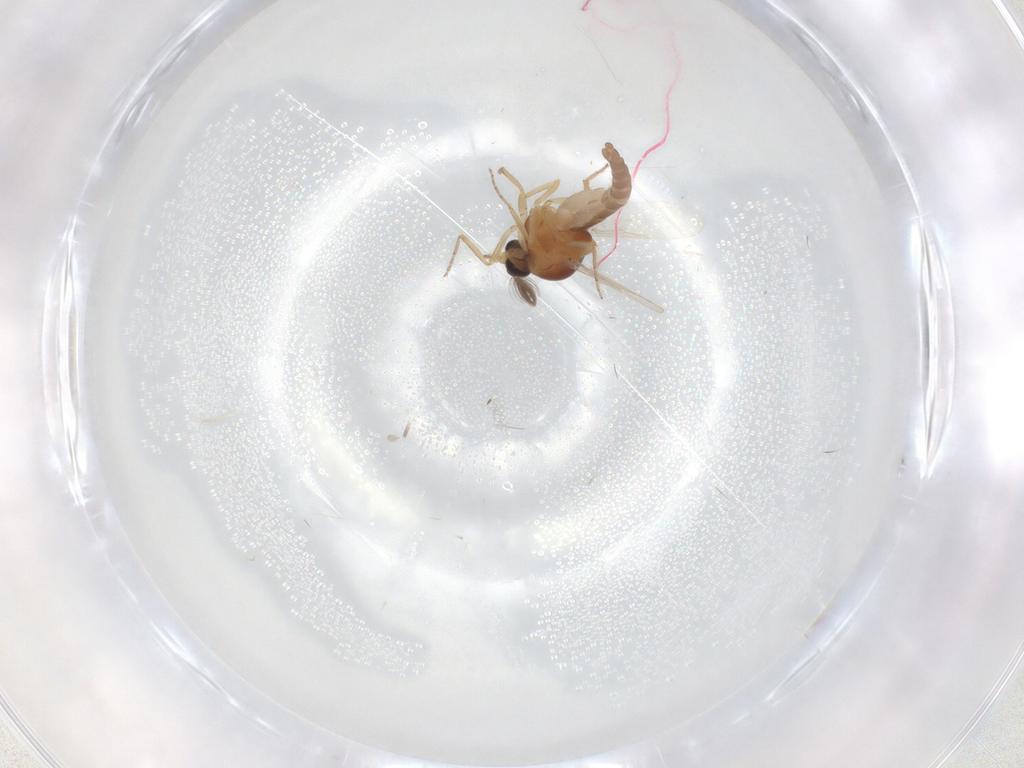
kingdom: Animalia
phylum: Arthropoda
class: Insecta
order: Diptera
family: Ceratopogonidae
